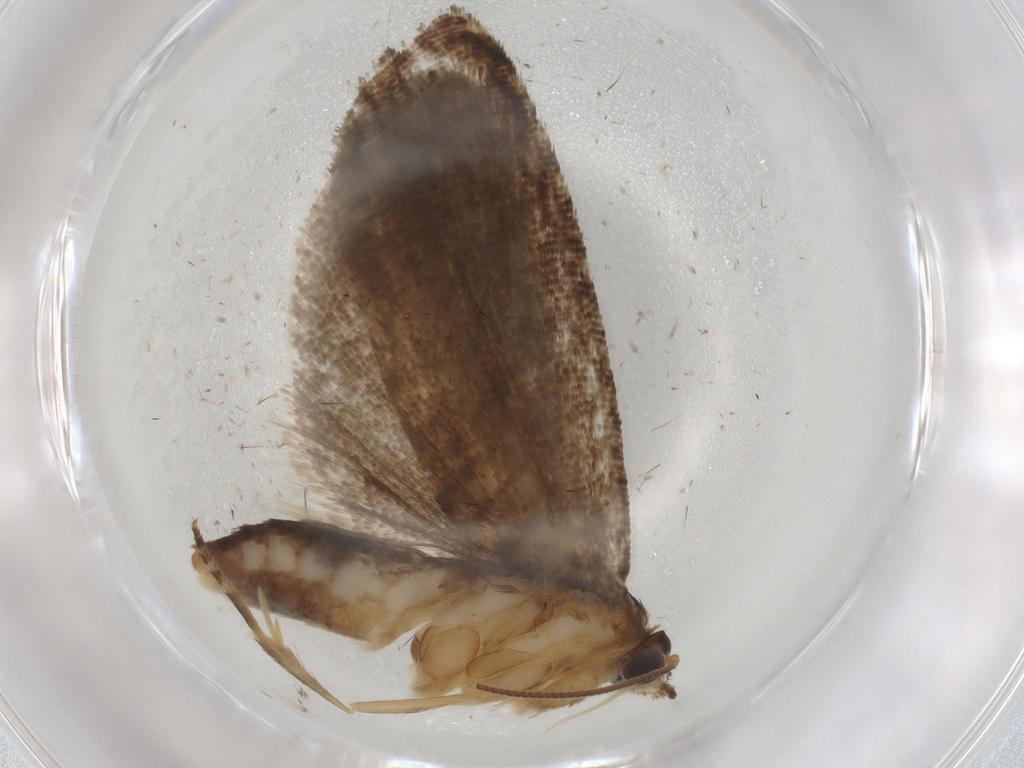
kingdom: Animalia
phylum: Arthropoda
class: Insecta
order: Lepidoptera
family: Tortricidae
